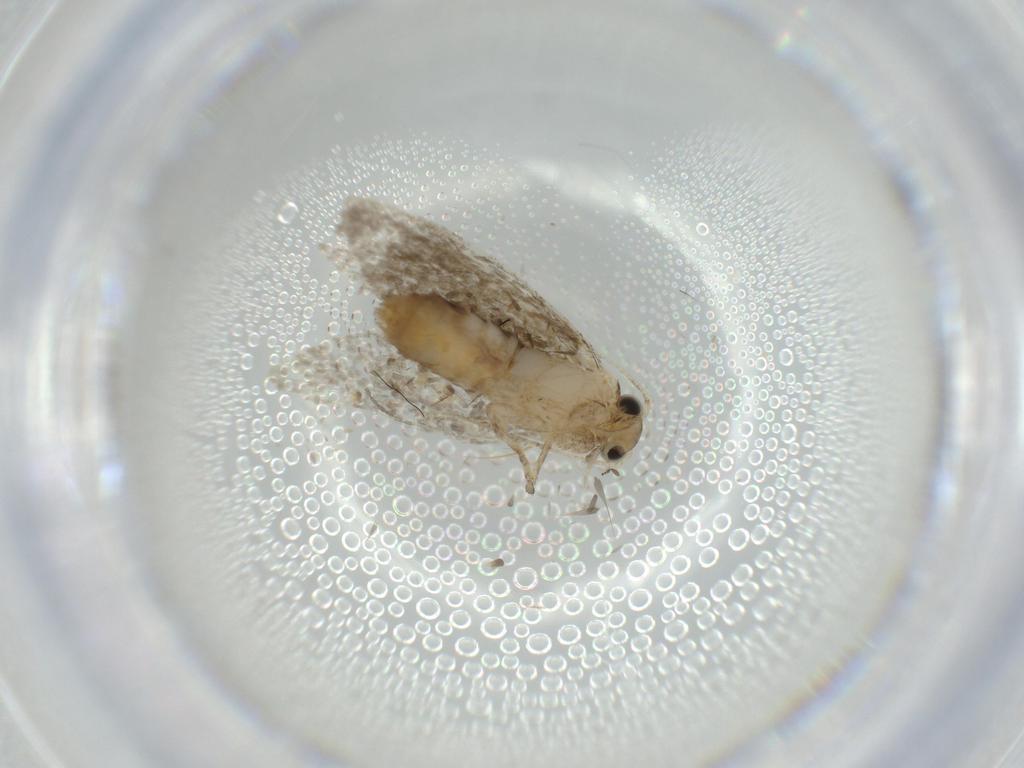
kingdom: Animalia
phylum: Arthropoda
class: Insecta
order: Lepidoptera
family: Tineidae
